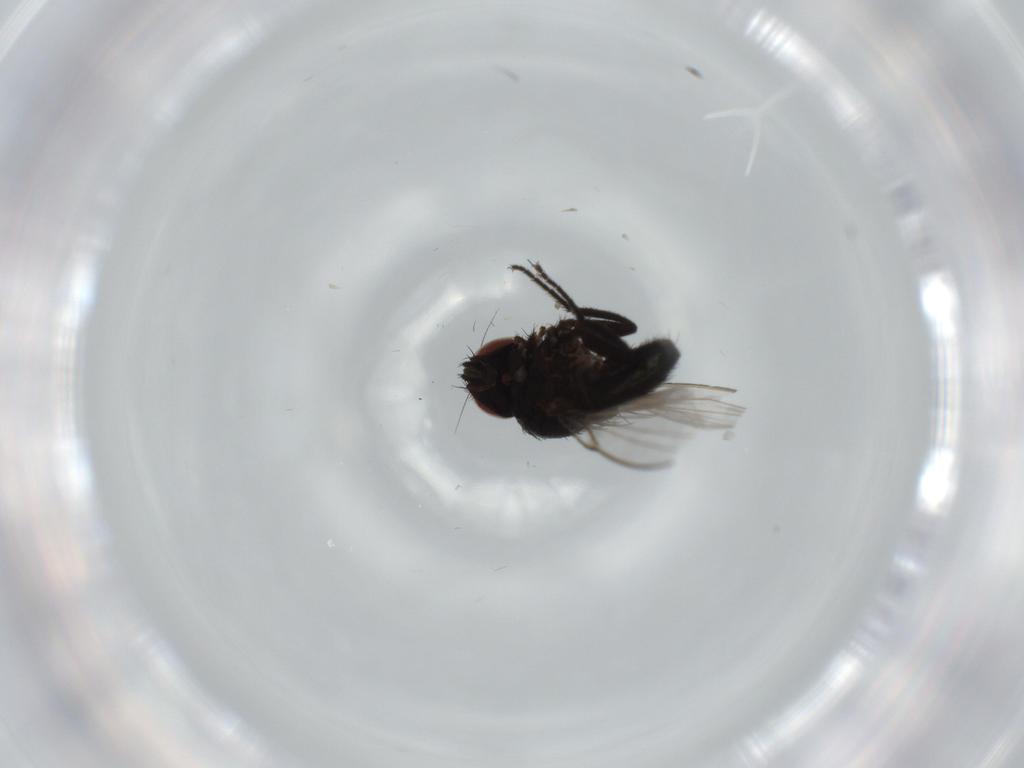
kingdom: Animalia
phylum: Arthropoda
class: Insecta
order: Diptera
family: Milichiidae
